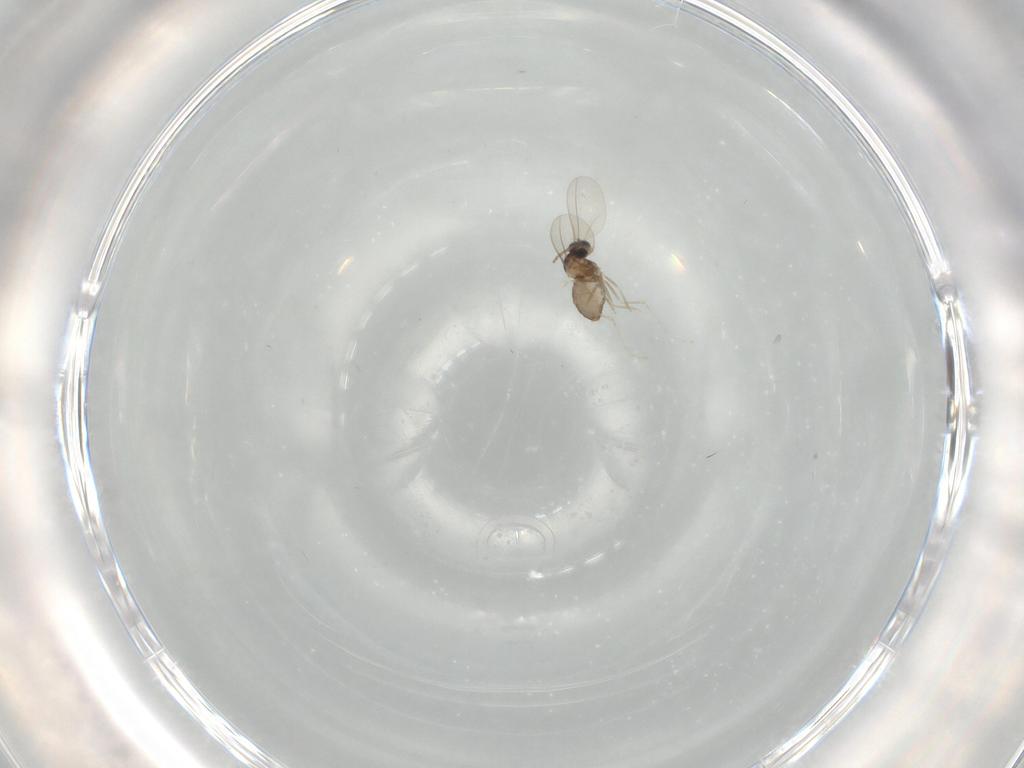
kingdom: Animalia
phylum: Arthropoda
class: Insecta
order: Diptera
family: Cecidomyiidae
